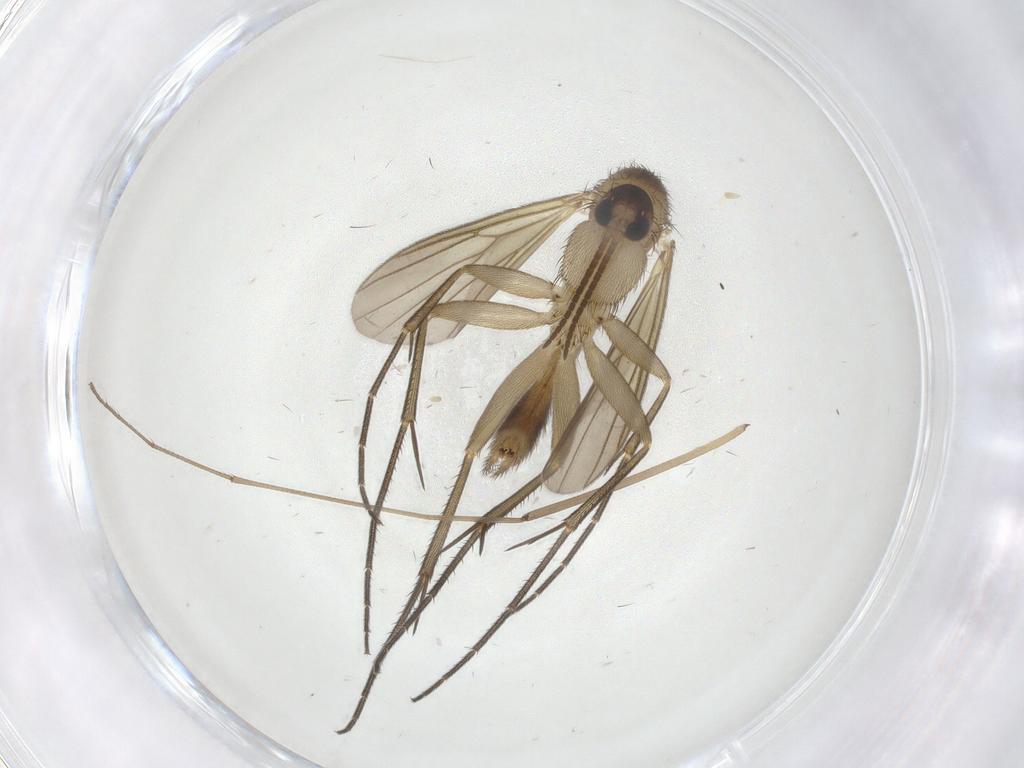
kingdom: Animalia
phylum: Arthropoda
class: Insecta
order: Diptera
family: Mycetophilidae
